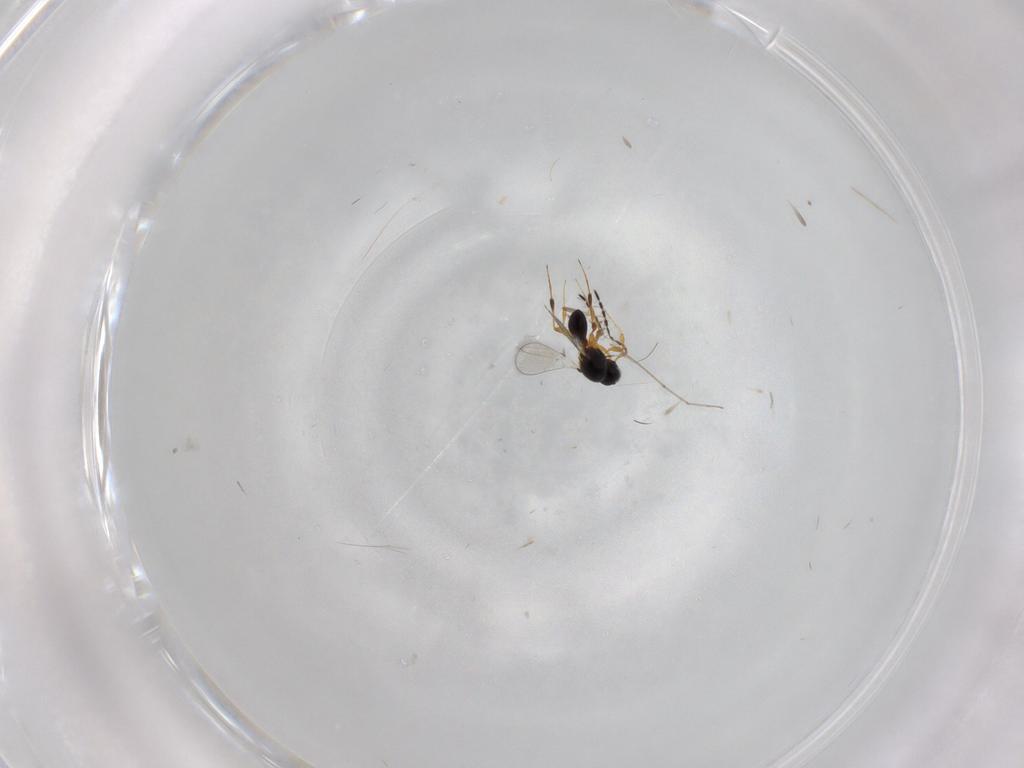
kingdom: Animalia
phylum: Arthropoda
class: Insecta
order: Hymenoptera
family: Platygastridae
